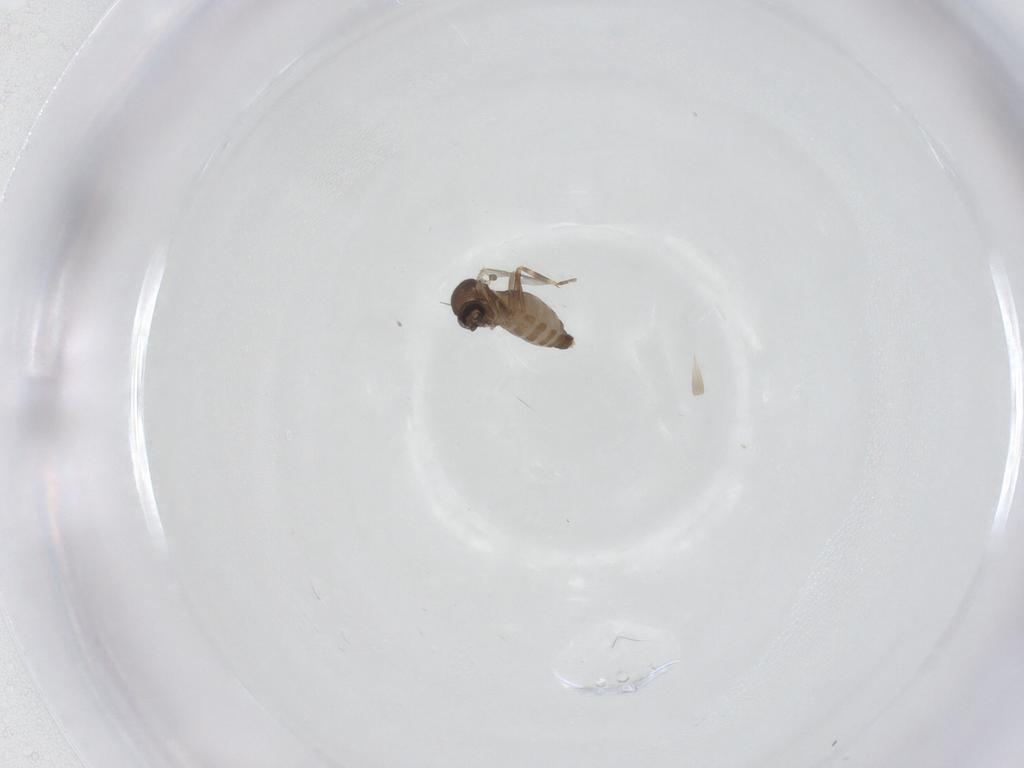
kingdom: Animalia
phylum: Arthropoda
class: Insecta
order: Diptera
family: Ceratopogonidae
